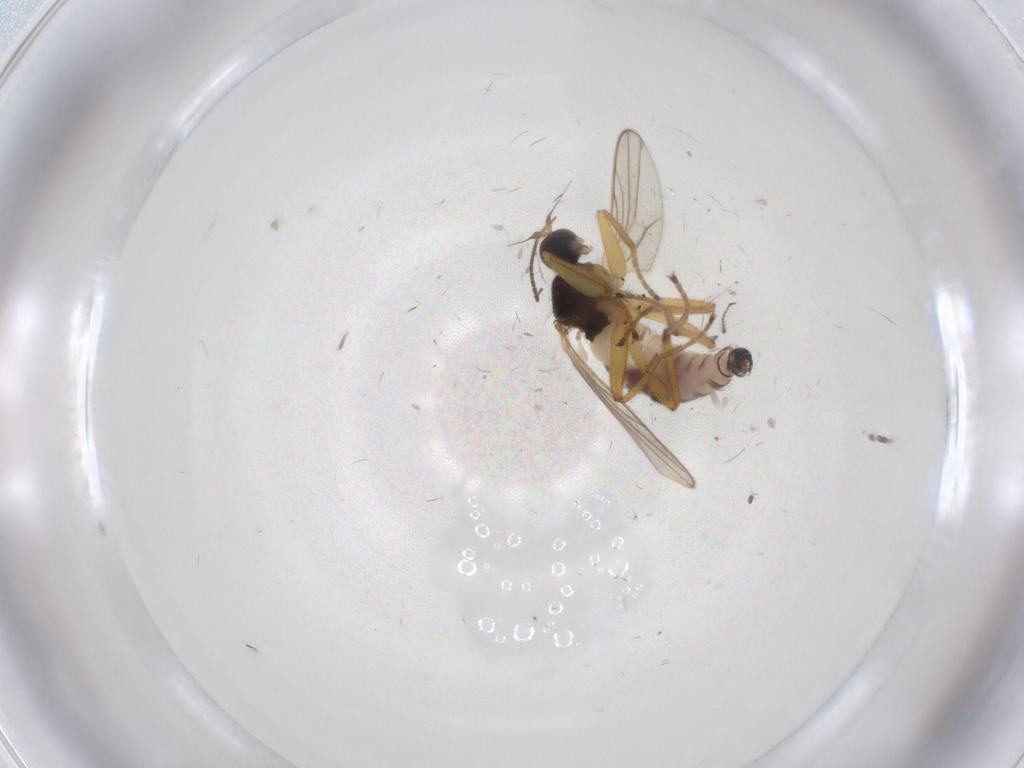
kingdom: Animalia
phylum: Arthropoda
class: Insecta
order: Diptera
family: Hybotidae
